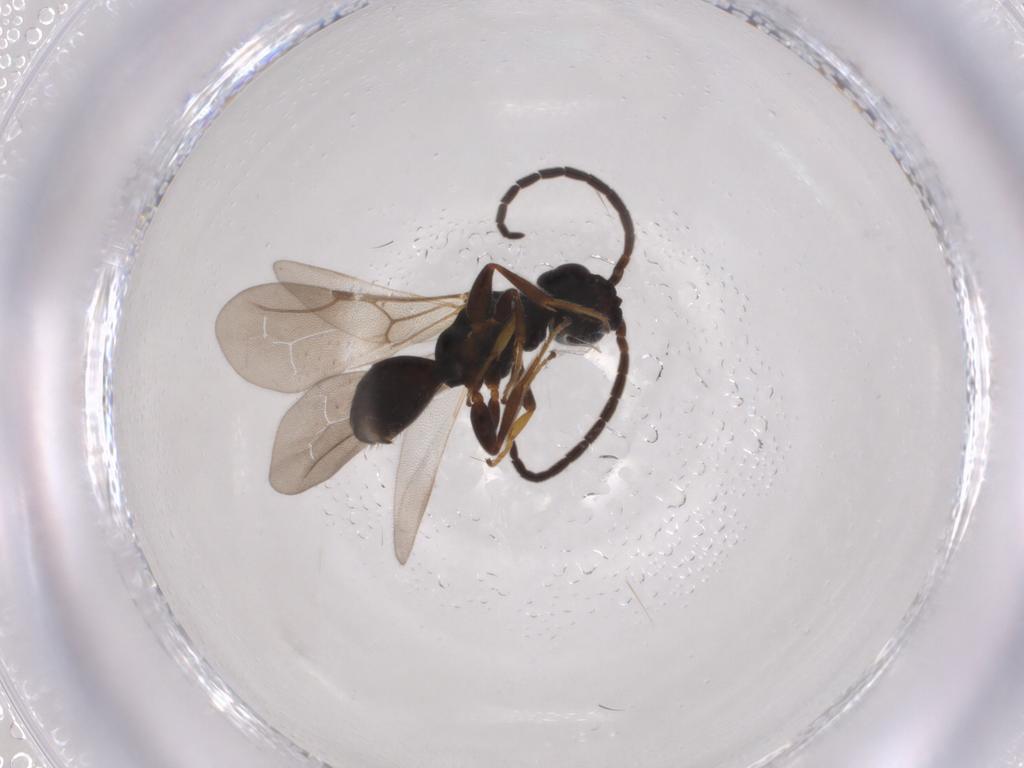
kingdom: Animalia
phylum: Arthropoda
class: Insecta
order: Hymenoptera
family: Bethylidae
